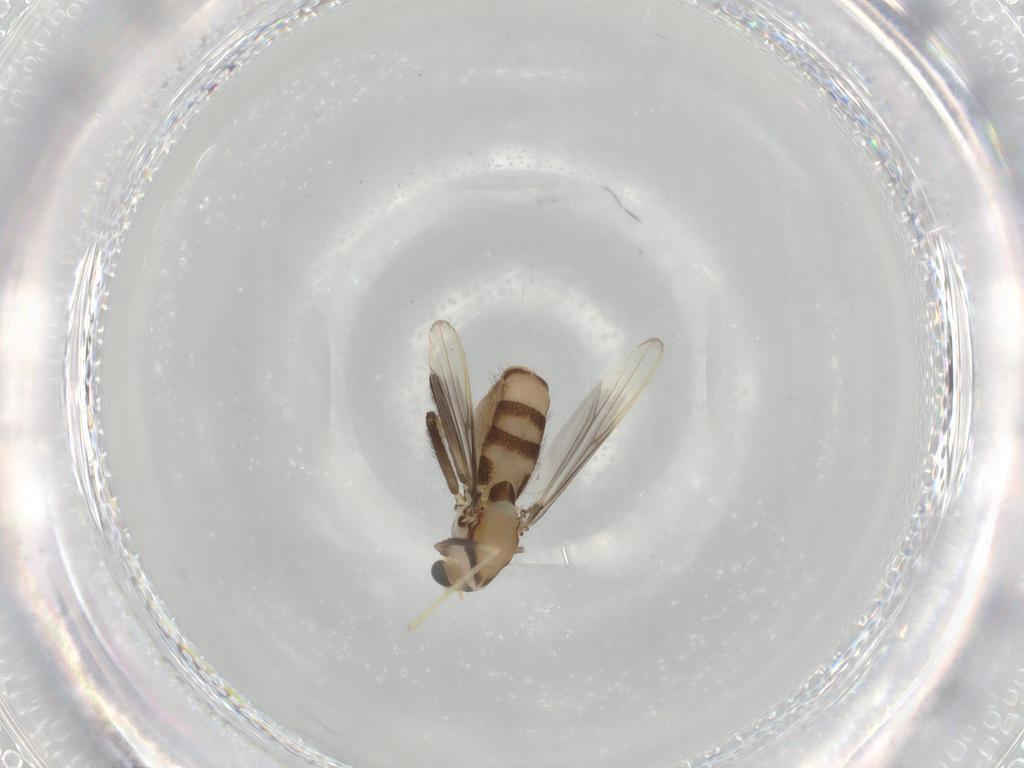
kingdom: Animalia
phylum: Arthropoda
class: Insecta
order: Diptera
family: Chironomidae
